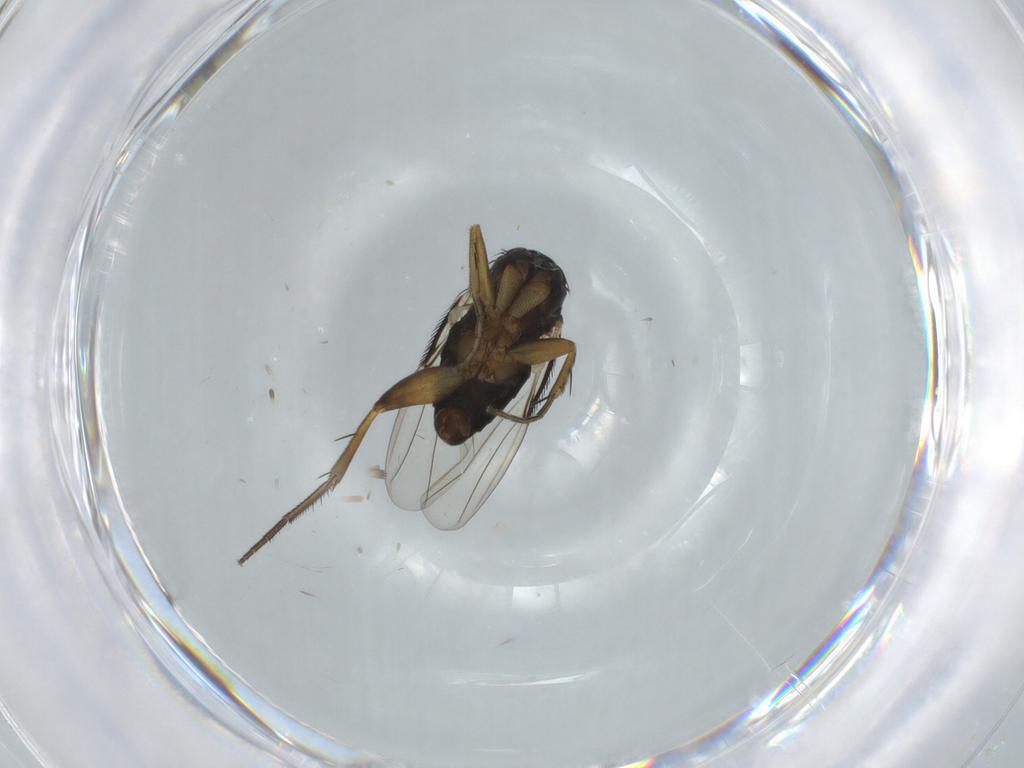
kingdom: Animalia
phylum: Arthropoda
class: Insecta
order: Diptera
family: Phoridae
